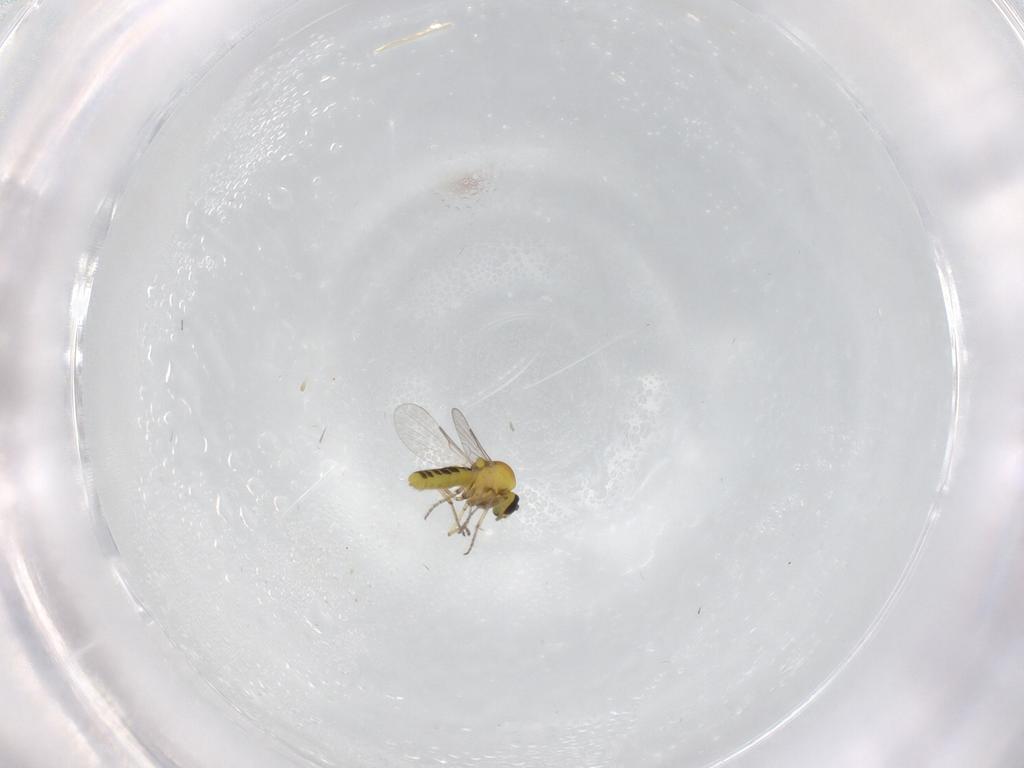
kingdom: Animalia
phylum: Arthropoda
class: Insecta
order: Diptera
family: Ceratopogonidae
